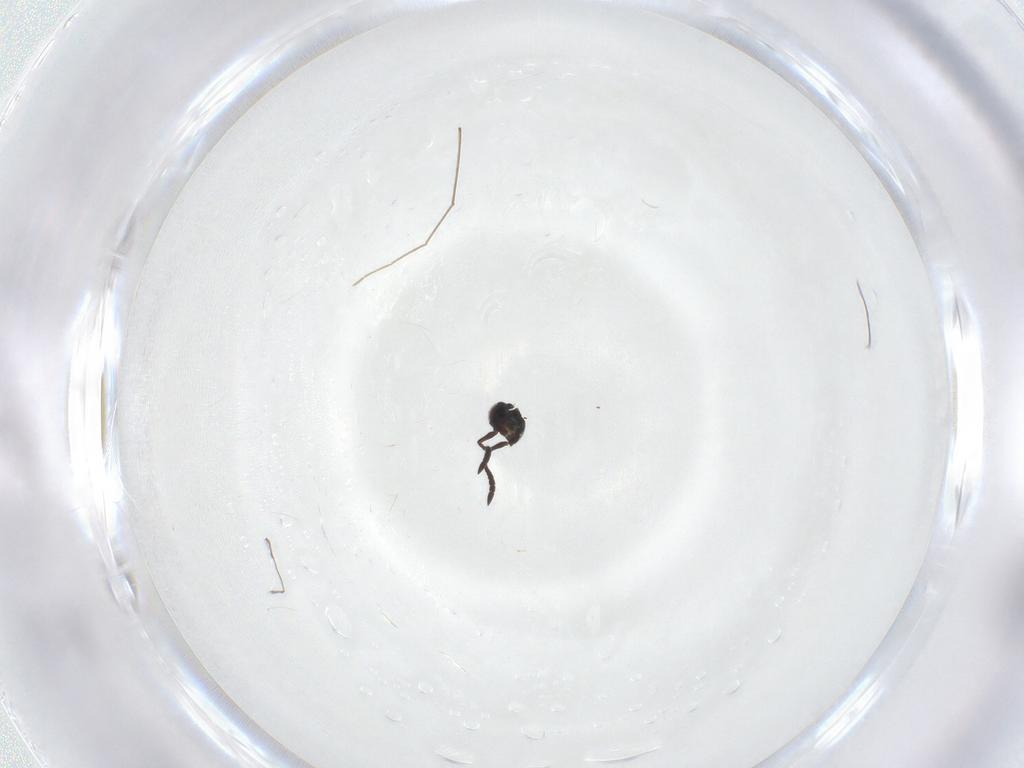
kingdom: Animalia
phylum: Arthropoda
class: Insecta
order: Diptera
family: Sciaridae
